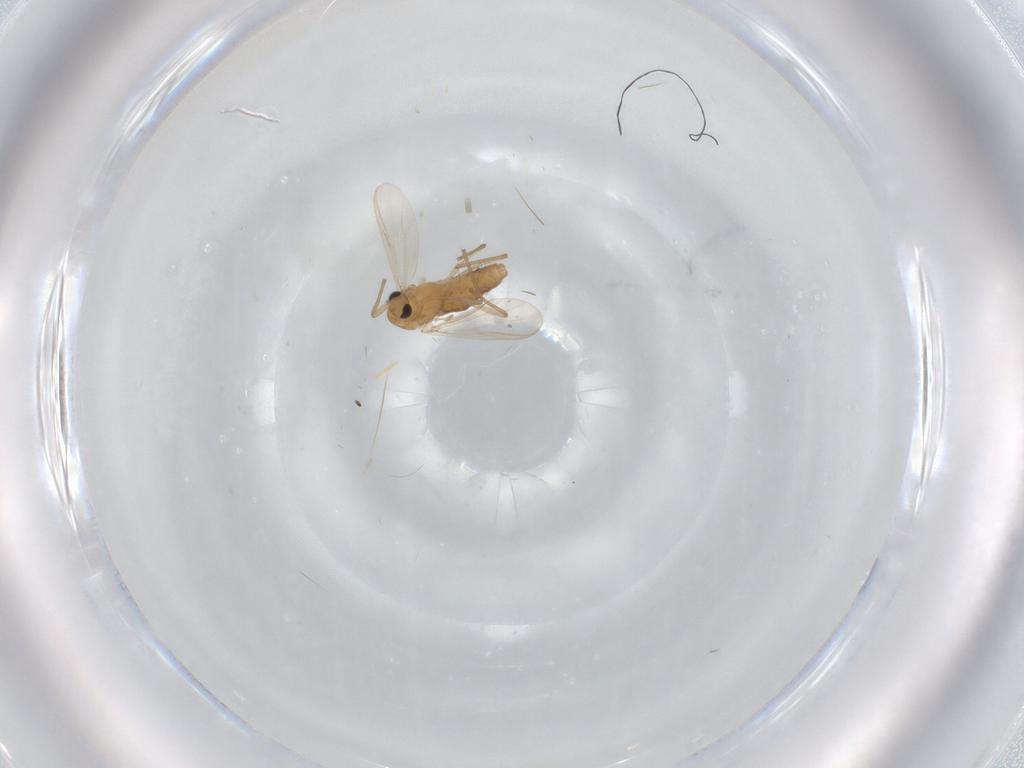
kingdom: Animalia
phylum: Arthropoda
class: Insecta
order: Diptera
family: Chironomidae
